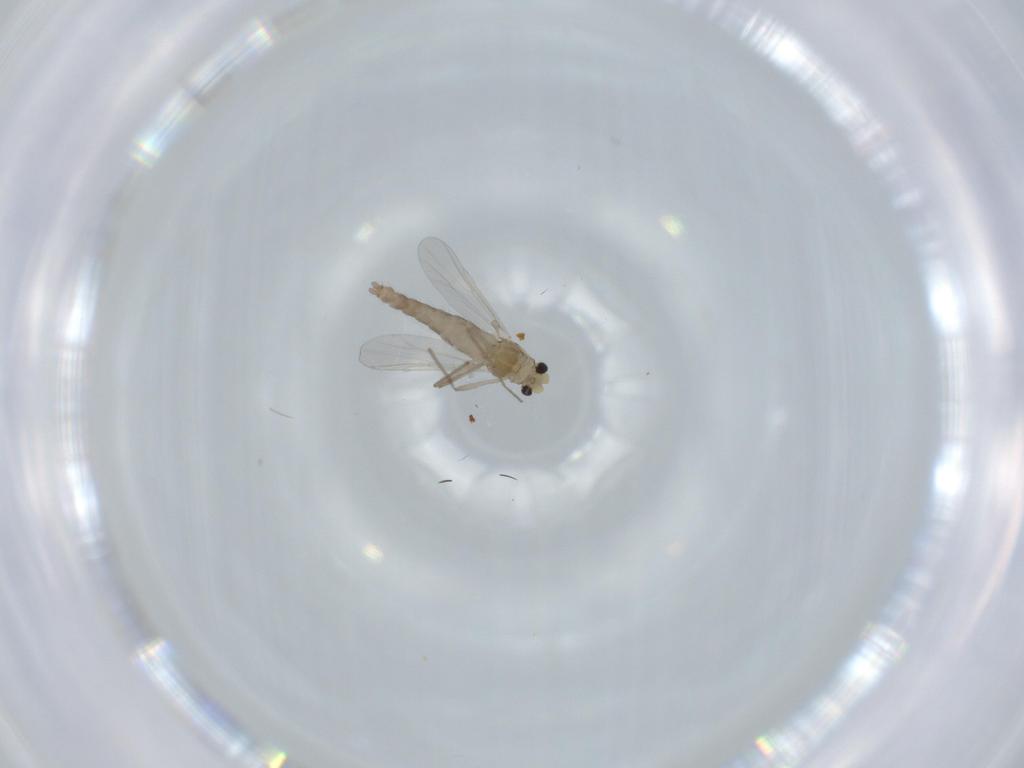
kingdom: Animalia
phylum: Arthropoda
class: Insecta
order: Diptera
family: Chironomidae
